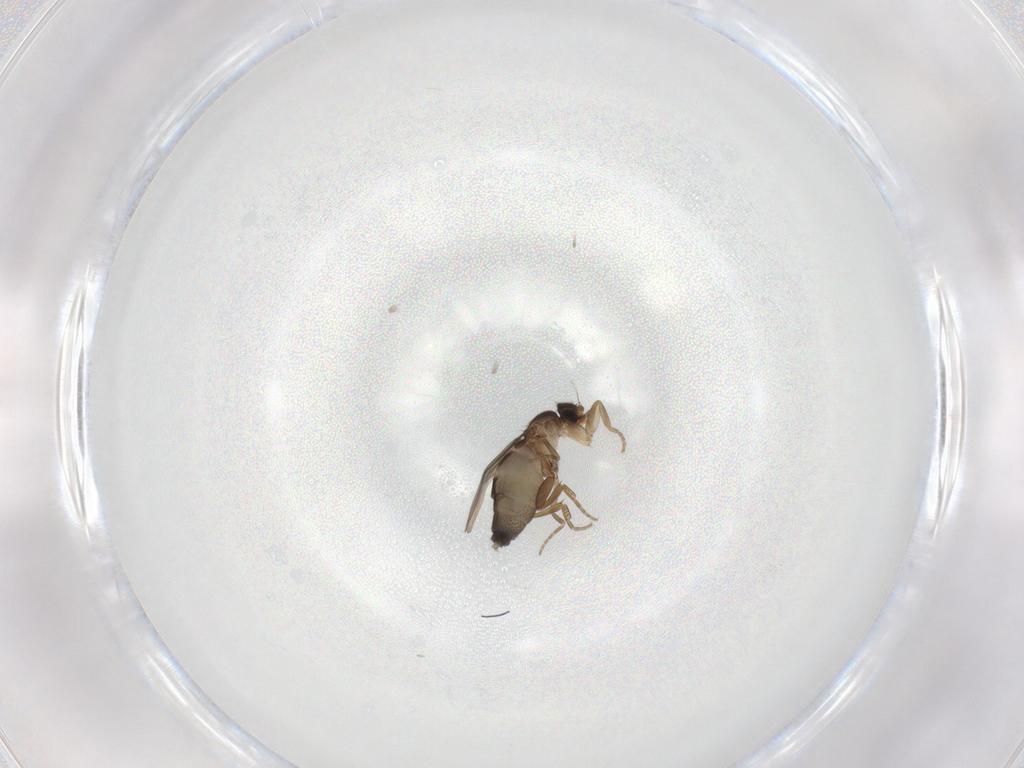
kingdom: Animalia
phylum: Arthropoda
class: Insecta
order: Diptera
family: Phoridae
